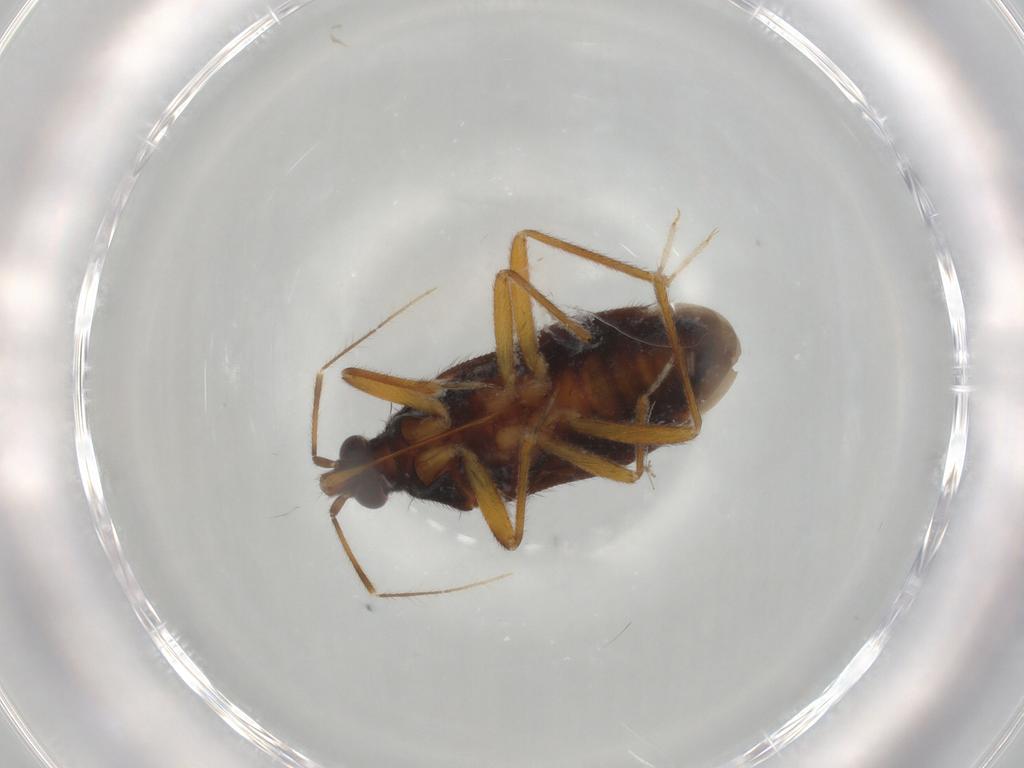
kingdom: Animalia
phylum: Arthropoda
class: Insecta
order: Hemiptera
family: Anthocoridae
